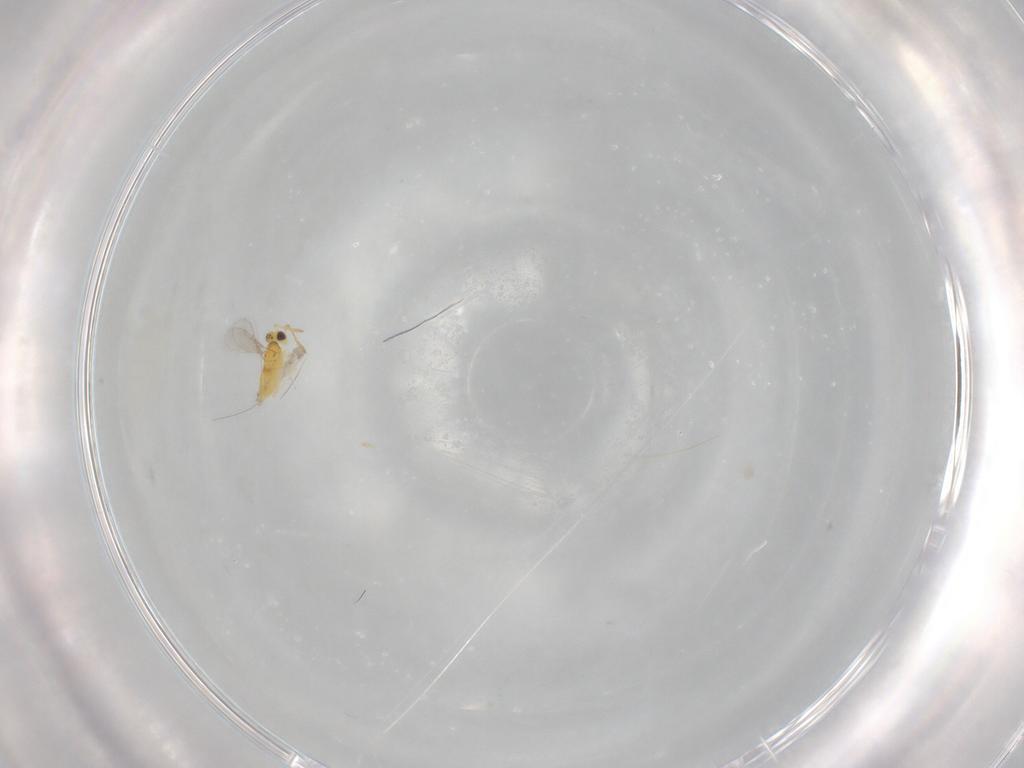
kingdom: Animalia
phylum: Arthropoda
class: Insecta
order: Hymenoptera
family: Aphelinidae
